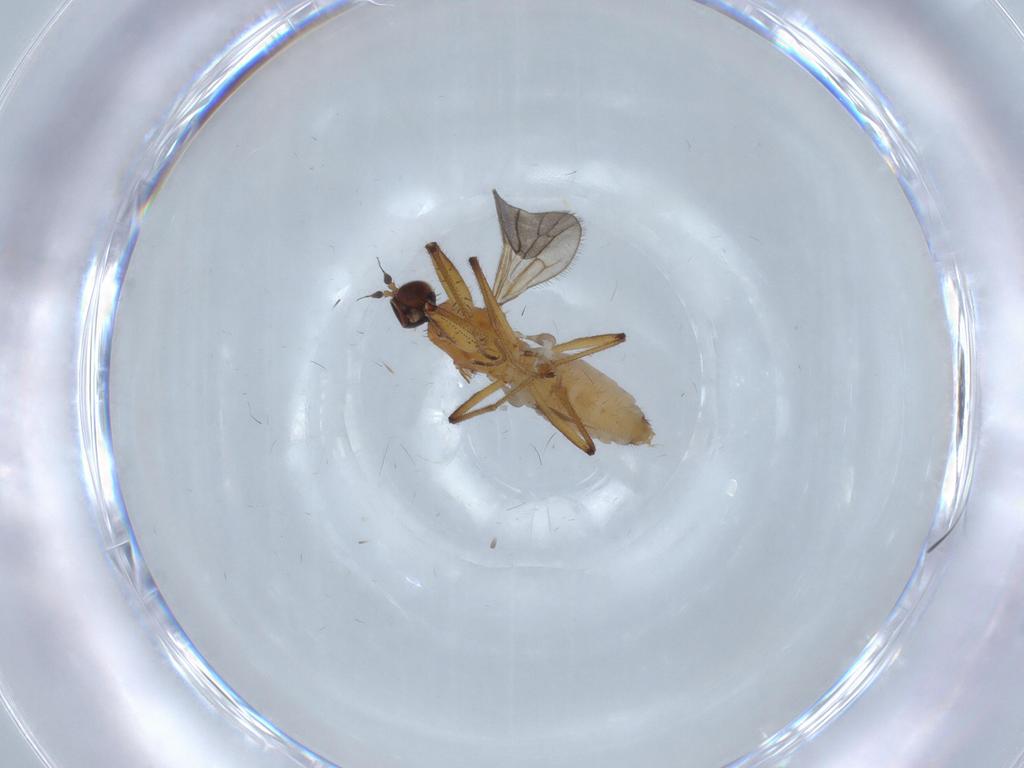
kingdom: Animalia
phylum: Arthropoda
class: Insecta
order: Diptera
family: Empididae
